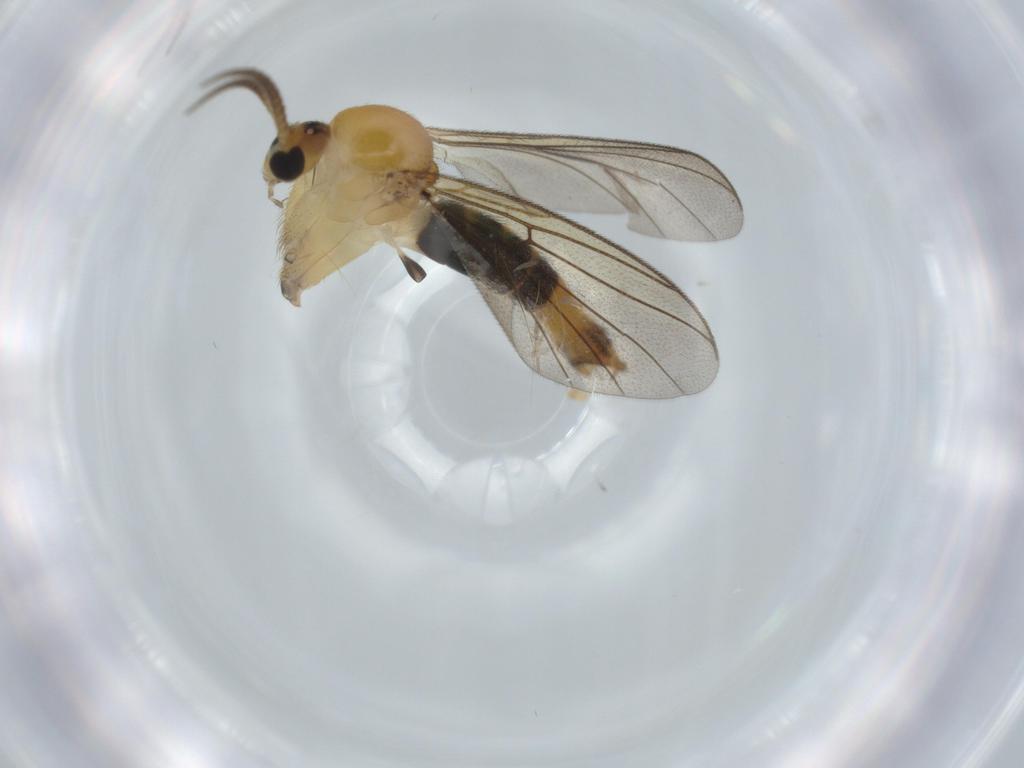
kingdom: Animalia
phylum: Arthropoda
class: Insecta
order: Diptera
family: Mycetophilidae
